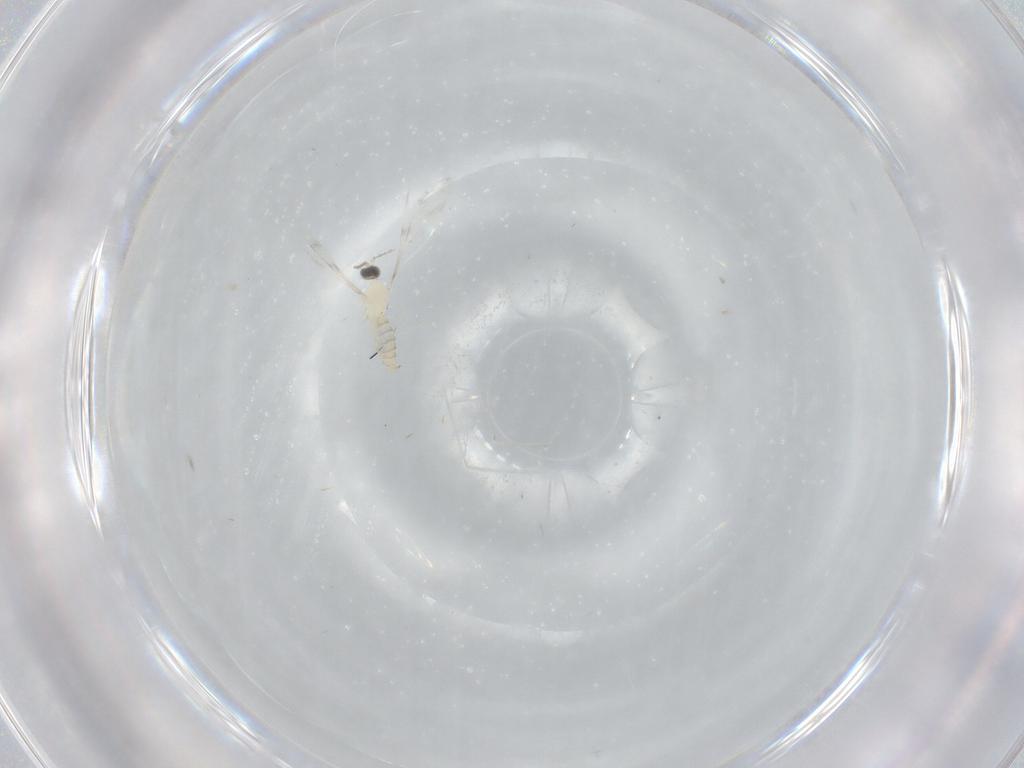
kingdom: Animalia
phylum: Arthropoda
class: Insecta
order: Diptera
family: Cecidomyiidae
